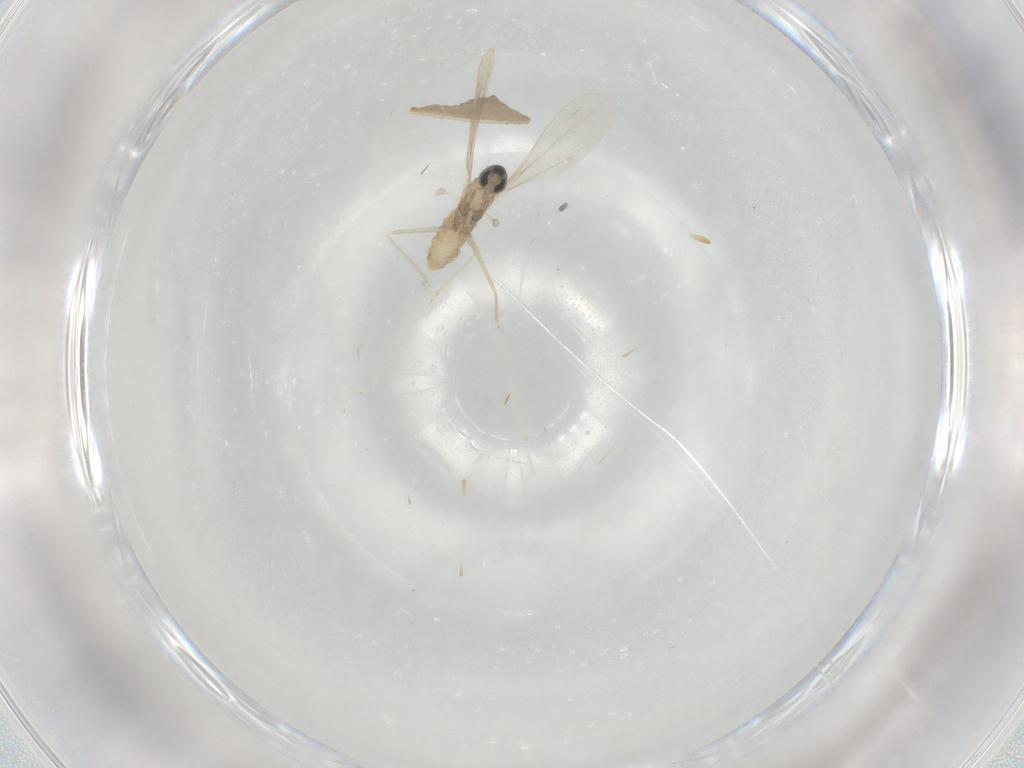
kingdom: Animalia
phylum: Arthropoda
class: Insecta
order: Diptera
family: Cecidomyiidae
